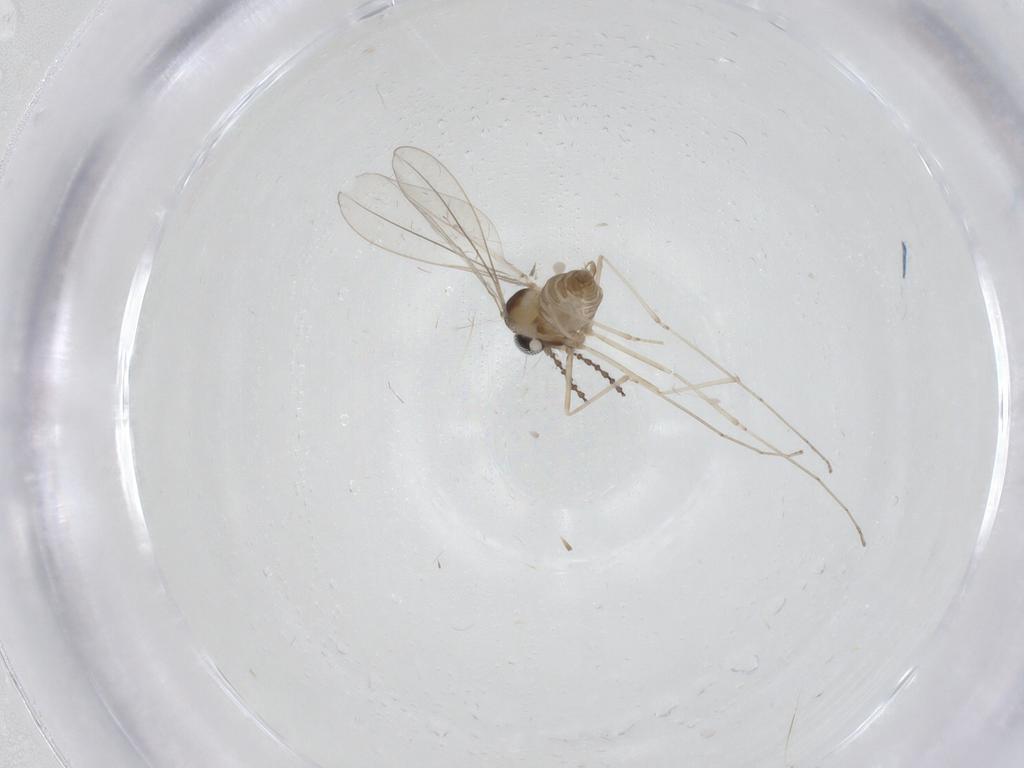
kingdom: Animalia
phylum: Arthropoda
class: Insecta
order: Diptera
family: Cecidomyiidae
